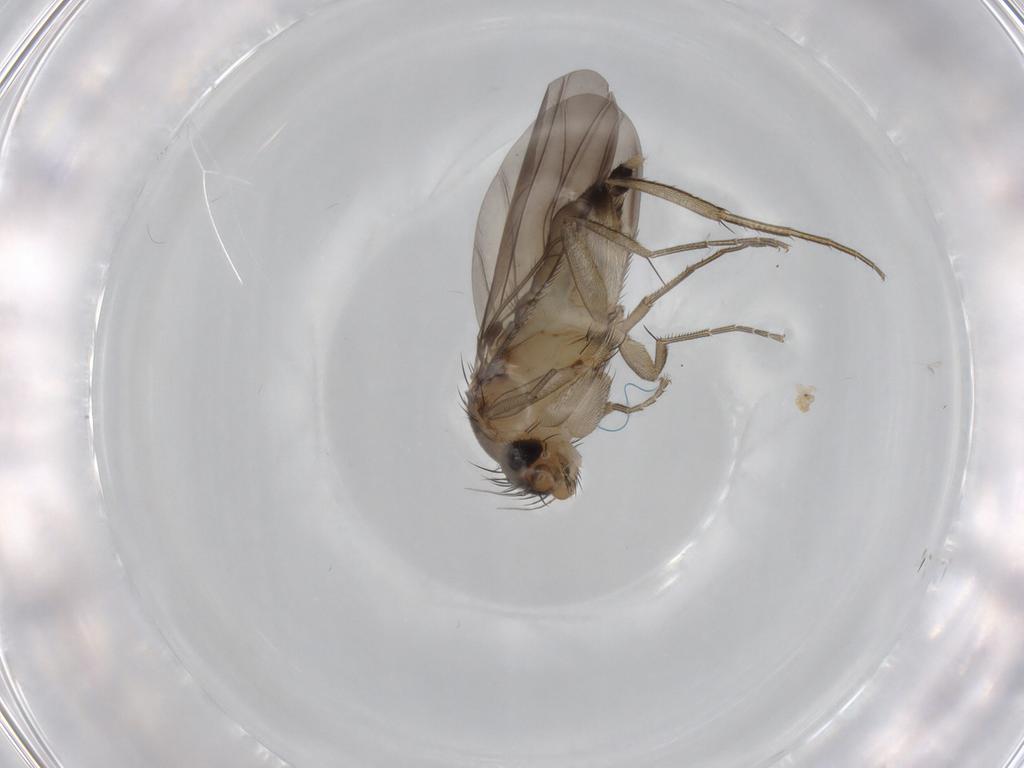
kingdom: Animalia
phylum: Arthropoda
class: Insecta
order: Diptera
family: Phoridae
